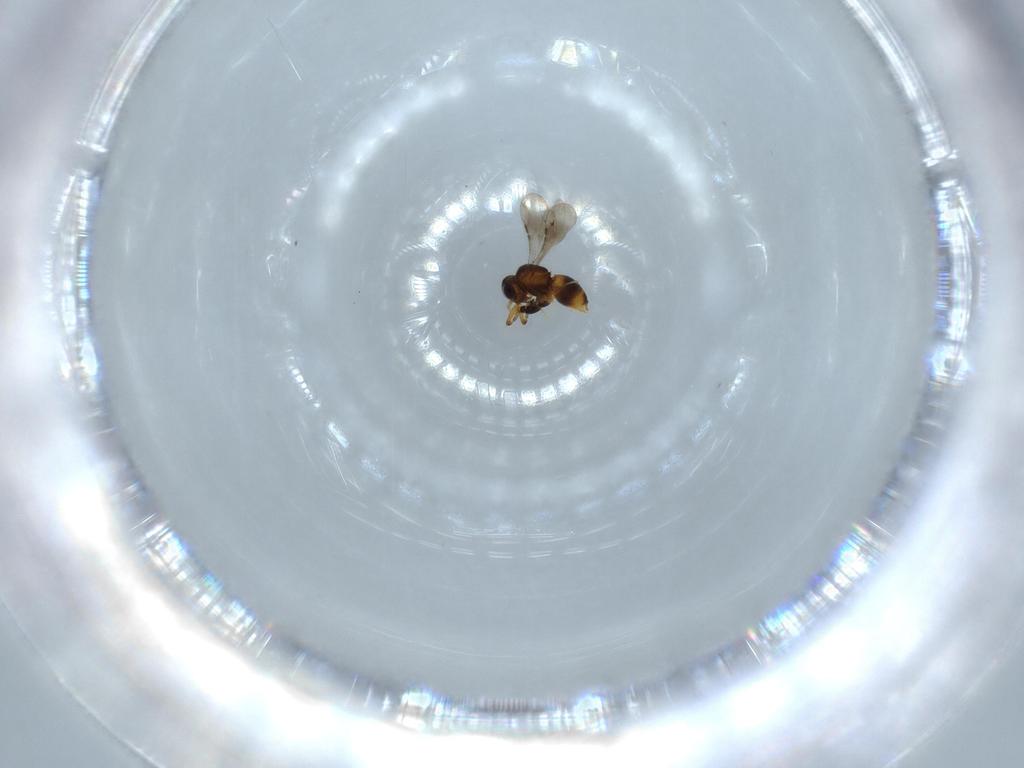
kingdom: Animalia
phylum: Arthropoda
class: Insecta
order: Hymenoptera
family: Bethylidae
